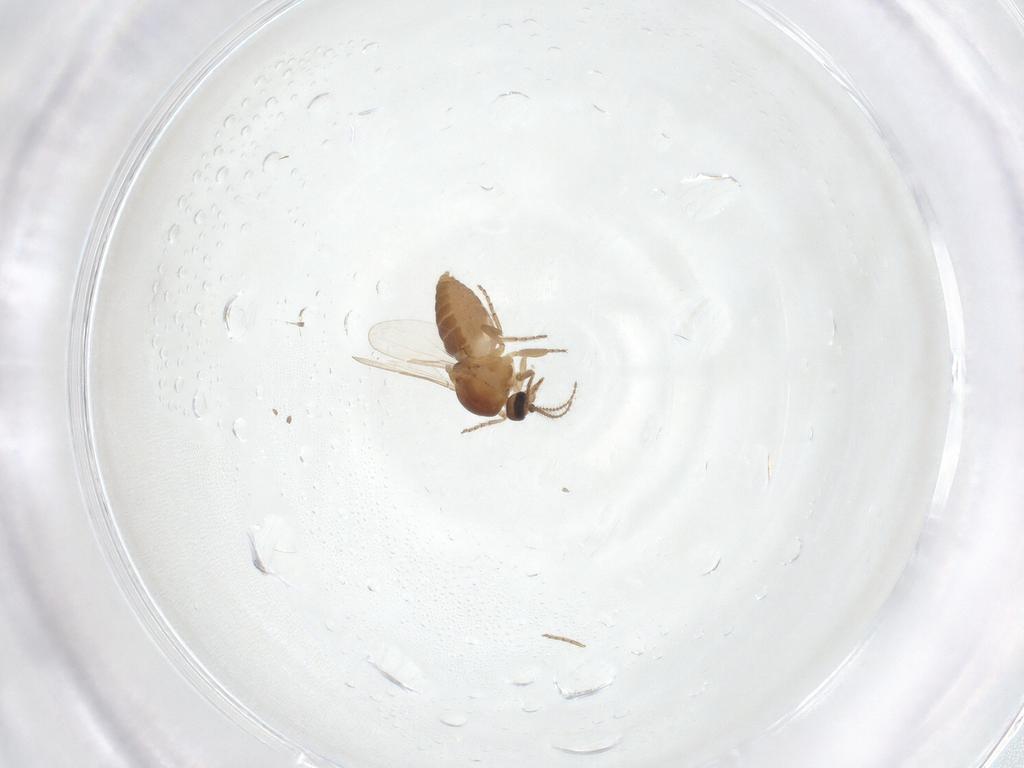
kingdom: Animalia
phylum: Arthropoda
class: Insecta
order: Diptera
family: Ceratopogonidae
